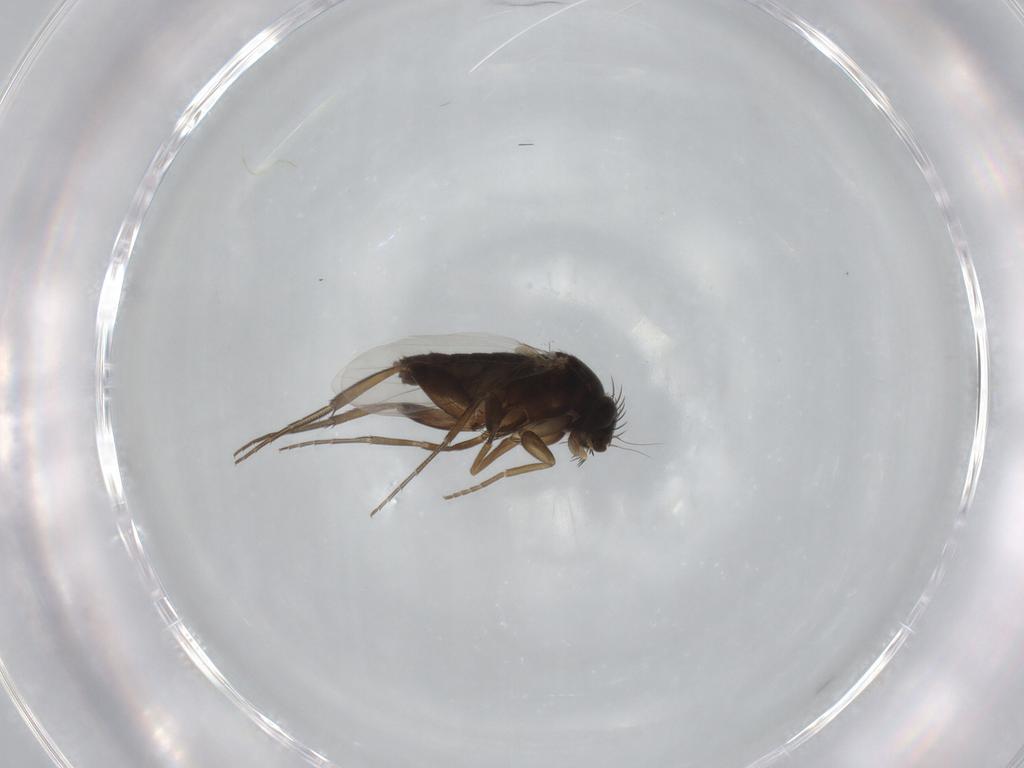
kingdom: Animalia
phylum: Arthropoda
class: Insecta
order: Diptera
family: Phoridae
